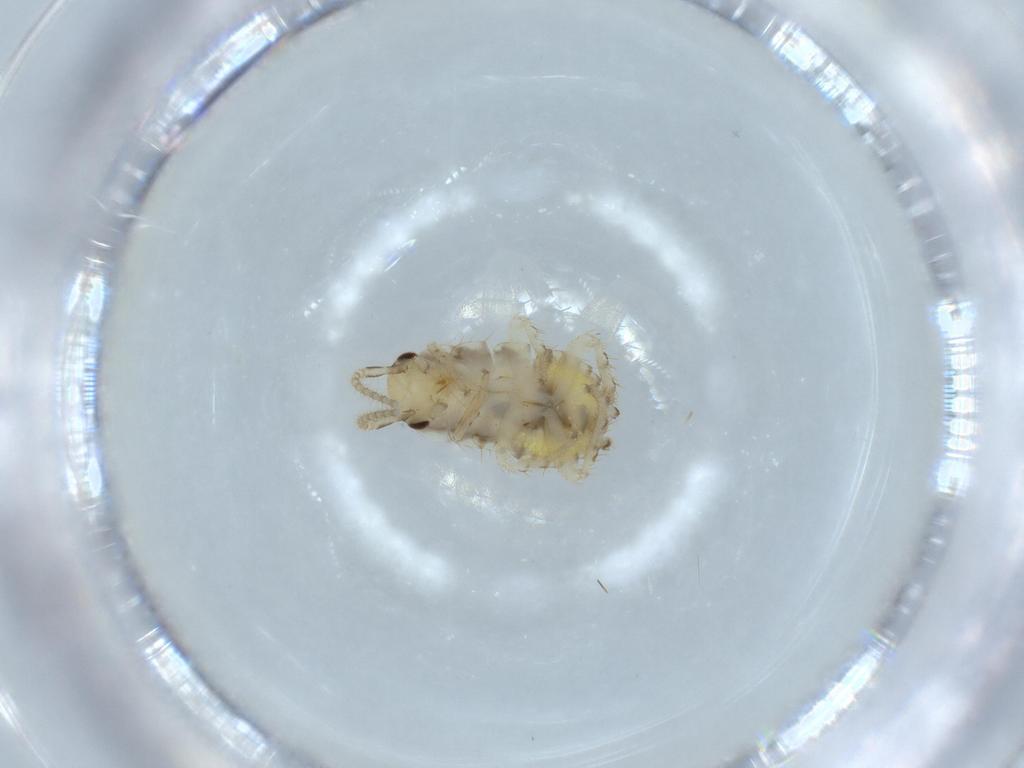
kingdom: Animalia
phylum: Arthropoda
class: Insecta
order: Blattodea
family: Ectobiidae
